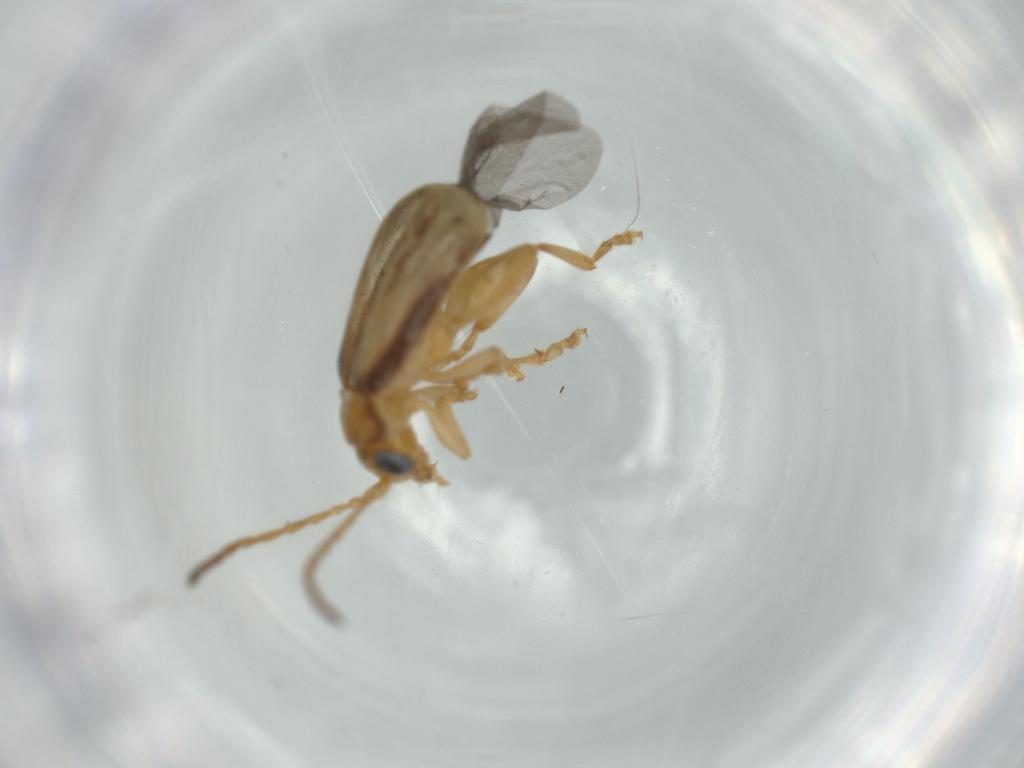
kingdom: Animalia
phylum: Arthropoda
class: Insecta
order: Coleoptera
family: Chrysomelidae
